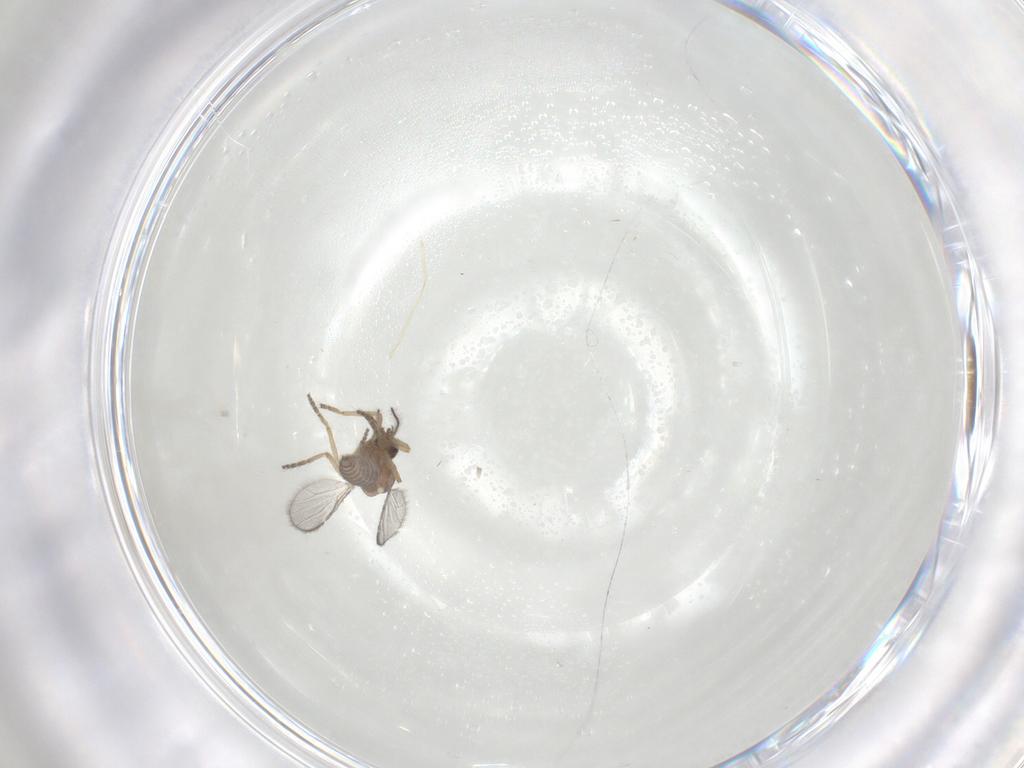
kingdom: Animalia
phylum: Arthropoda
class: Insecta
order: Diptera
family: Ceratopogonidae
